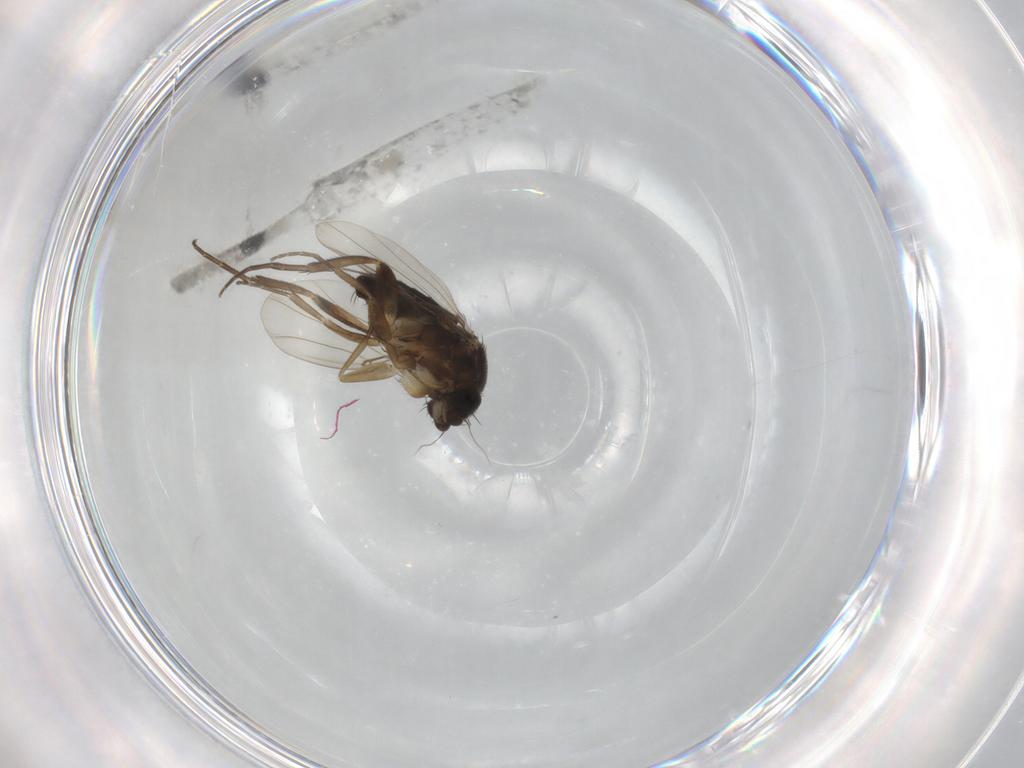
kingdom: Animalia
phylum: Arthropoda
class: Insecta
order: Diptera
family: Phoridae
